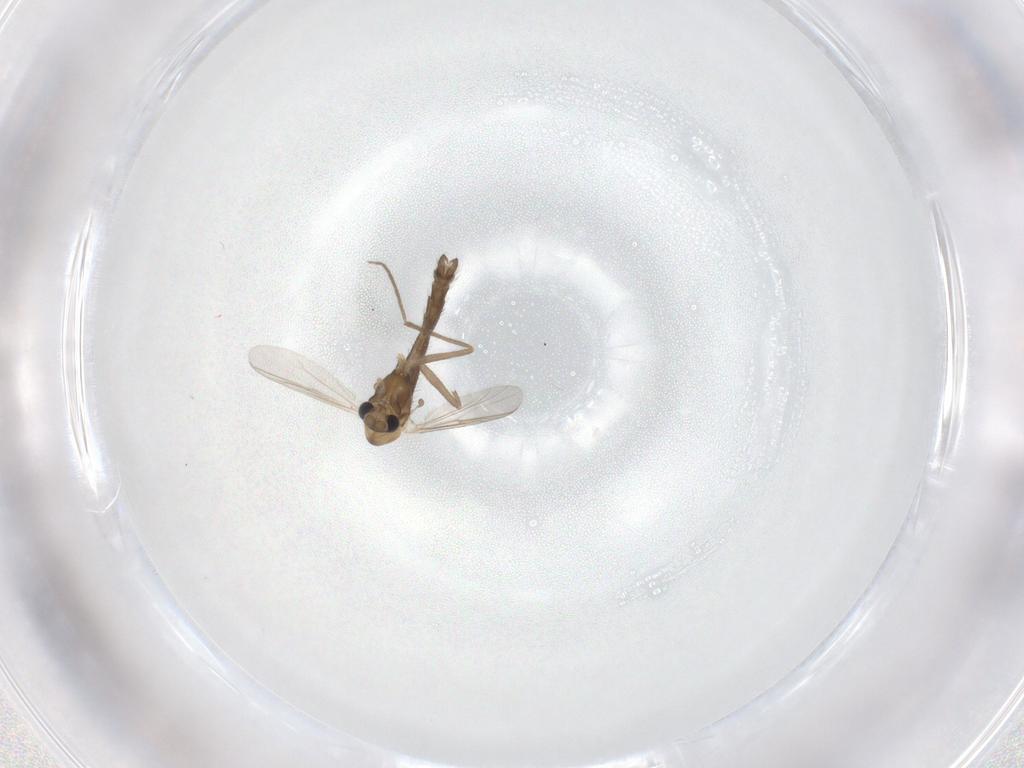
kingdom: Animalia
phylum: Arthropoda
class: Insecta
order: Diptera
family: Chironomidae
